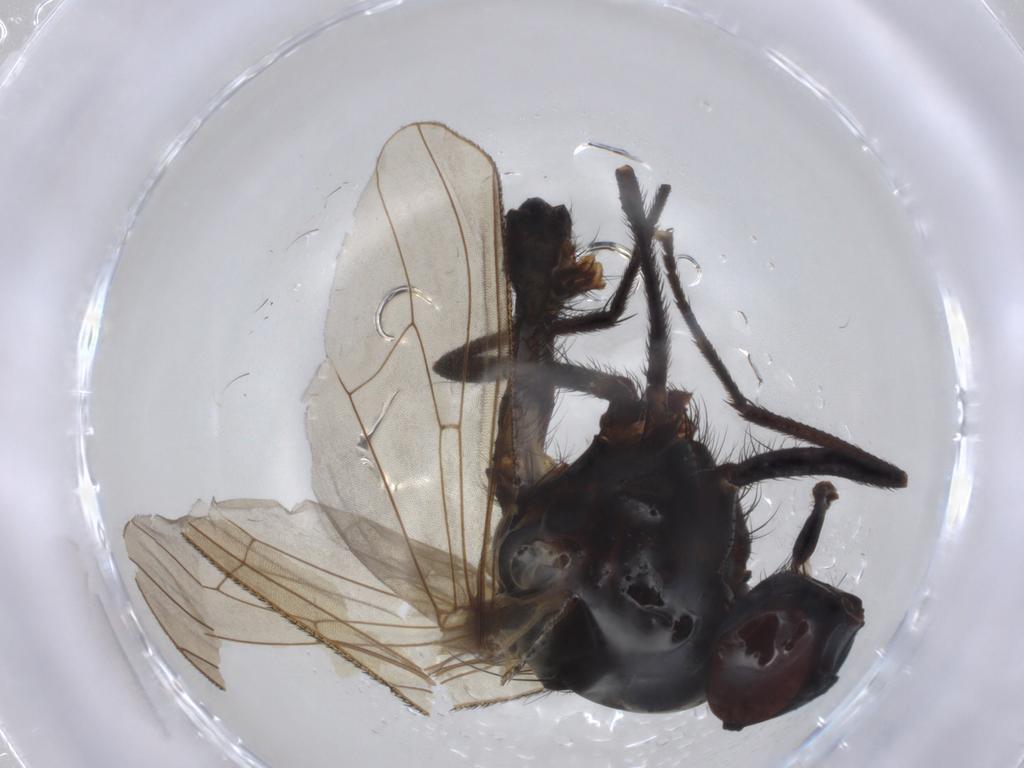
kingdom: Animalia
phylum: Arthropoda
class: Insecta
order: Diptera
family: Anthomyiidae
